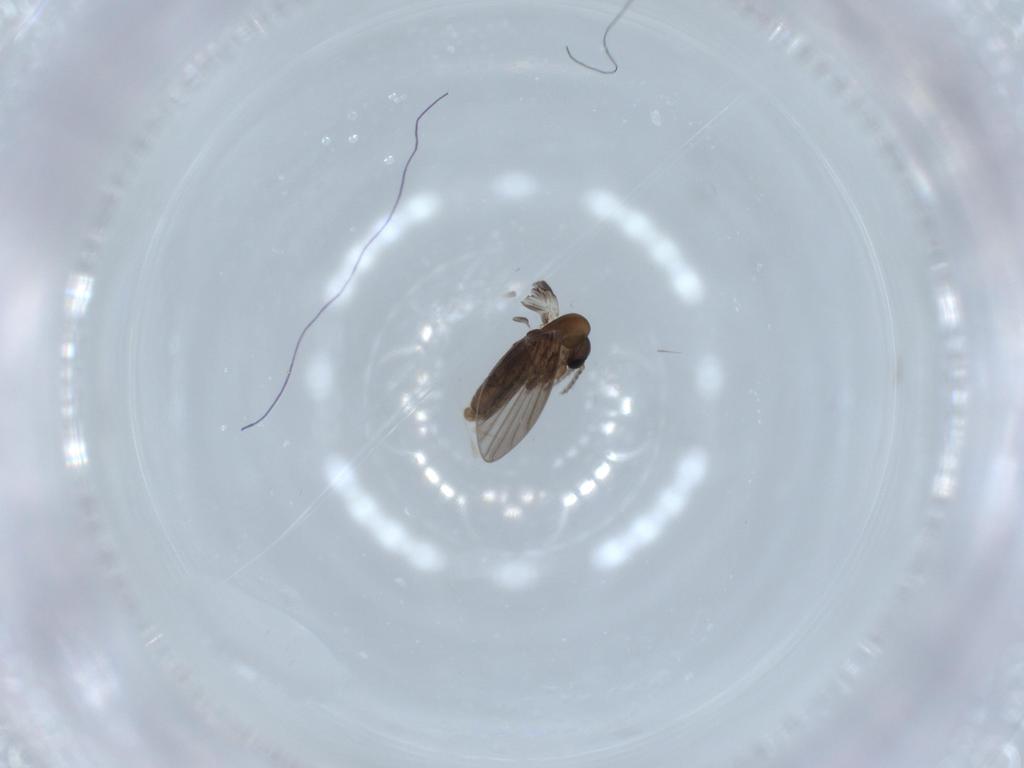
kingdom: Animalia
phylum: Arthropoda
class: Insecta
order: Diptera
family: Psychodidae
